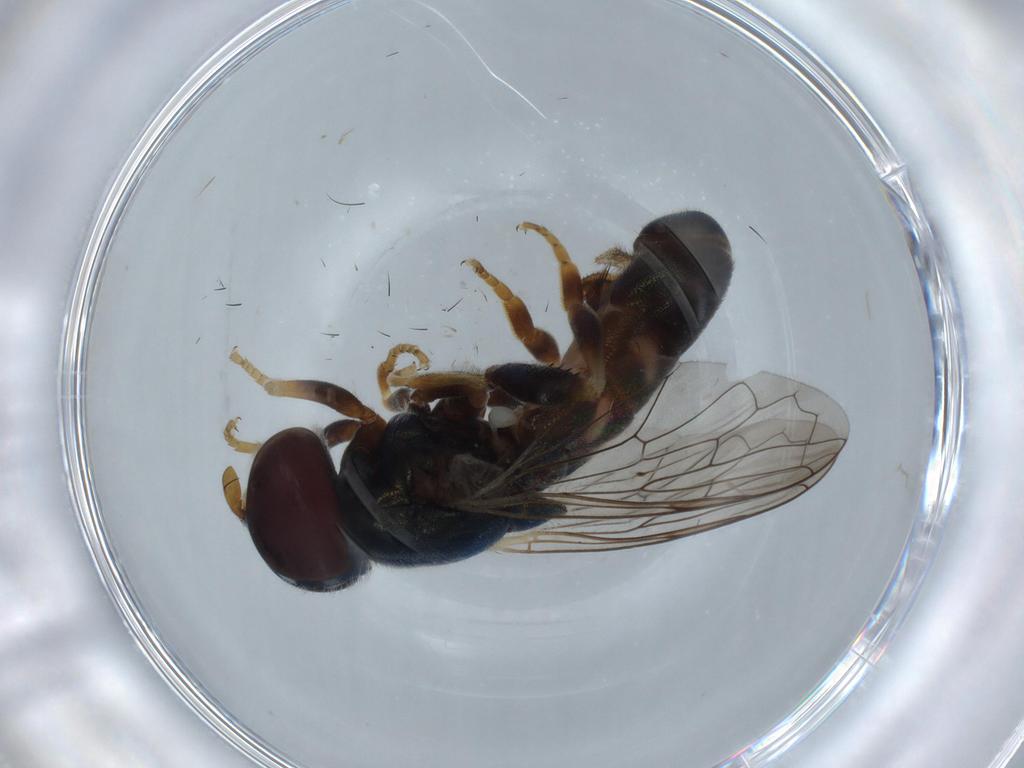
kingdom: Animalia
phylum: Arthropoda
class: Insecta
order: Diptera
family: Syrphidae
